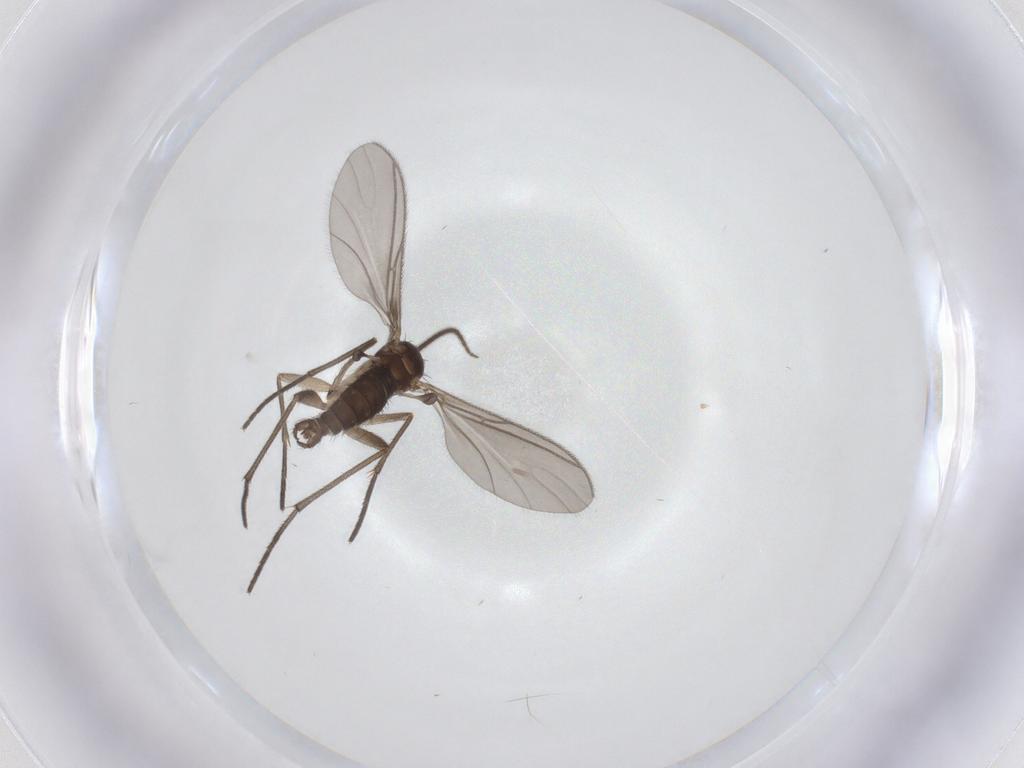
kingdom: Animalia
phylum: Arthropoda
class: Insecta
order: Diptera
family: Sciaridae
